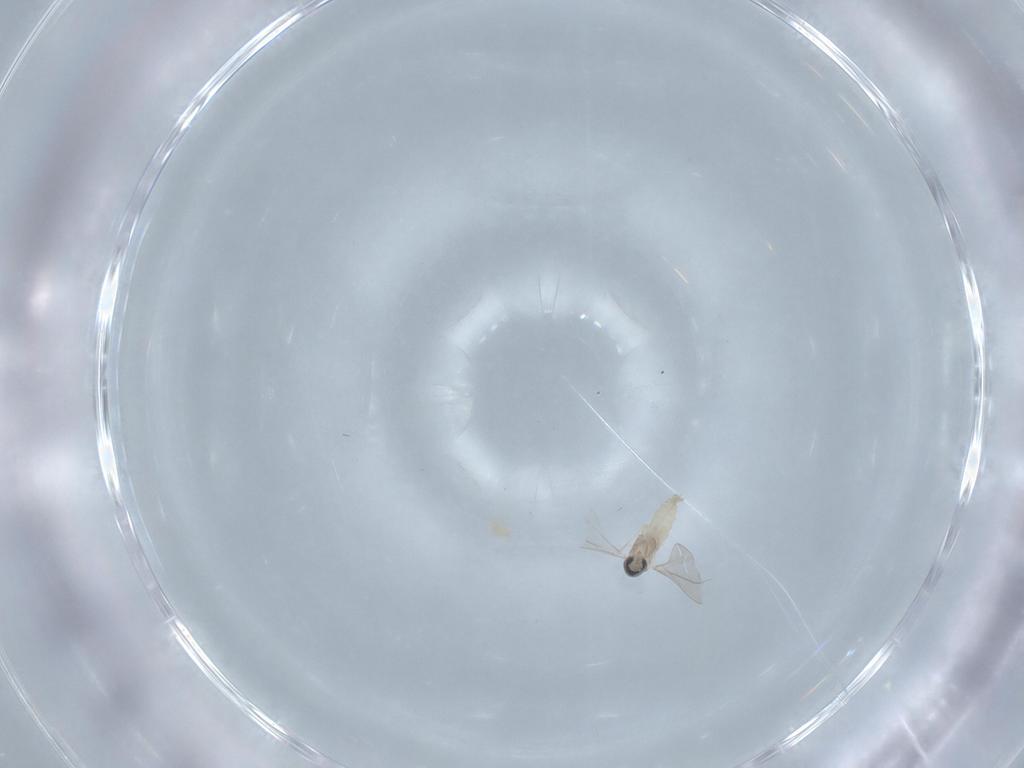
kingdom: Animalia
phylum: Arthropoda
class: Insecta
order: Diptera
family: Cecidomyiidae
